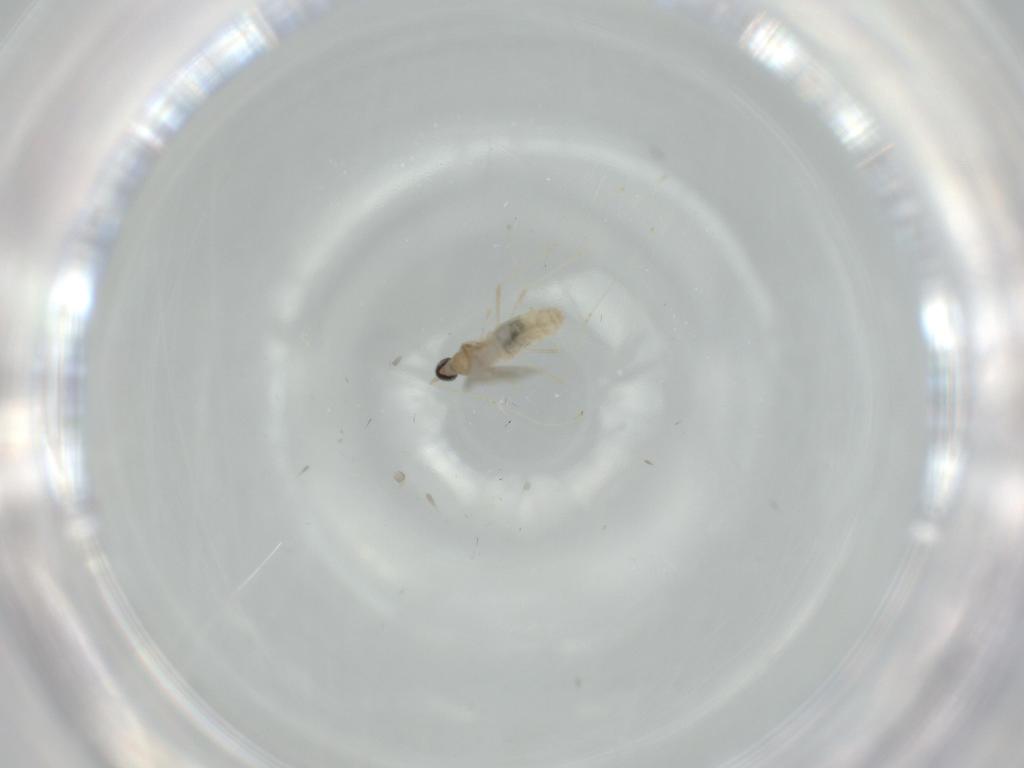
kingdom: Animalia
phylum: Arthropoda
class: Insecta
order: Diptera
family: Cecidomyiidae
